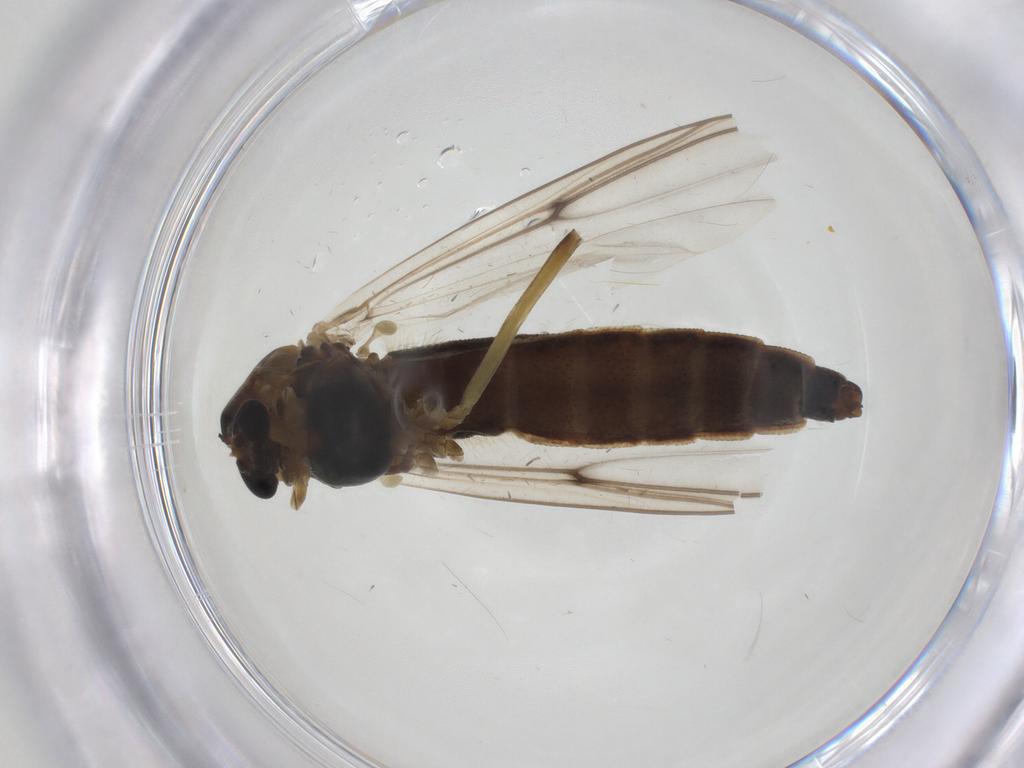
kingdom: Animalia
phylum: Arthropoda
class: Insecta
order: Diptera
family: Chironomidae
